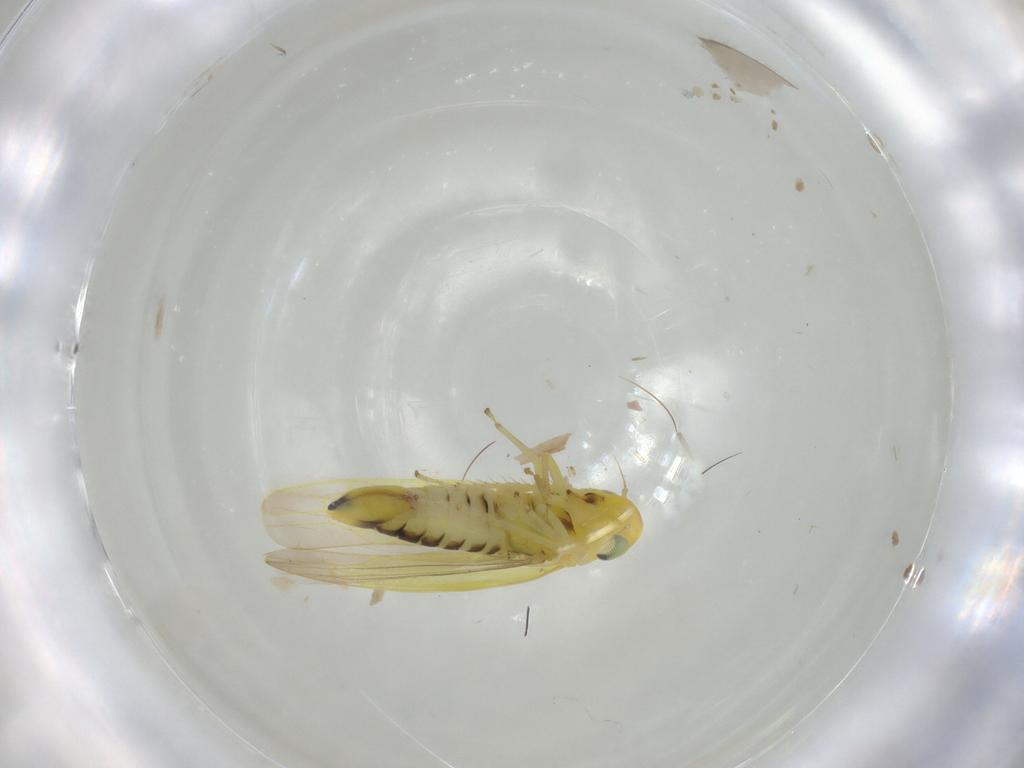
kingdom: Animalia
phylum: Arthropoda
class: Insecta
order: Hemiptera
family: Cicadellidae
